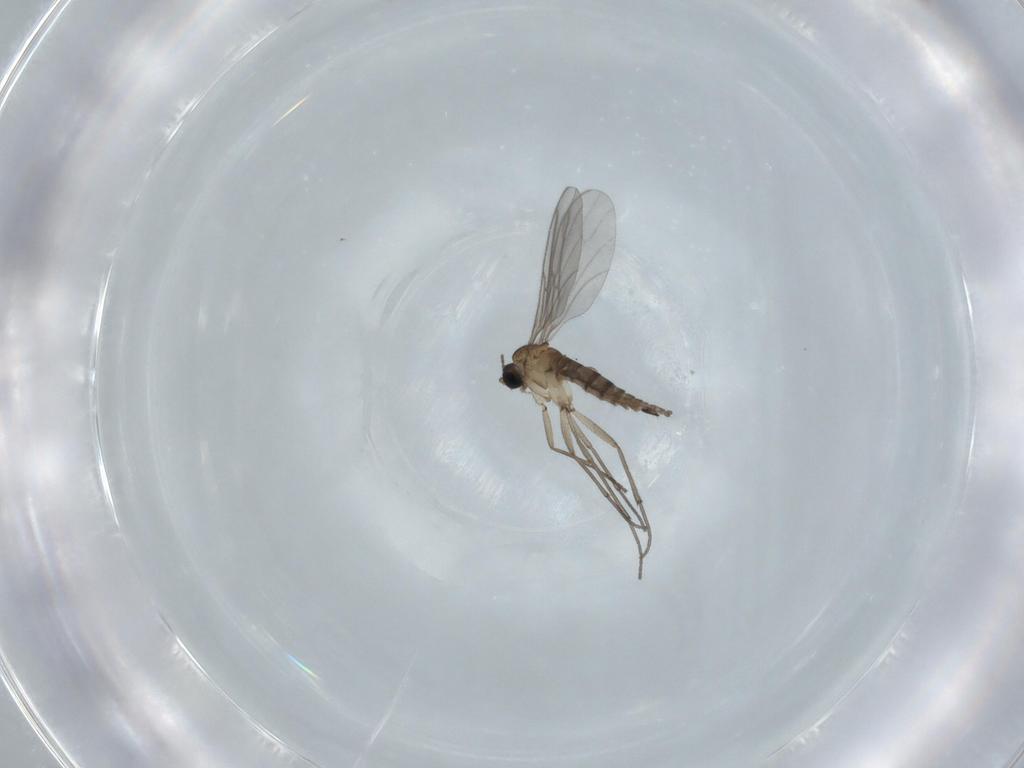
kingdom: Animalia
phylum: Arthropoda
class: Insecta
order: Diptera
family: Sciaridae
